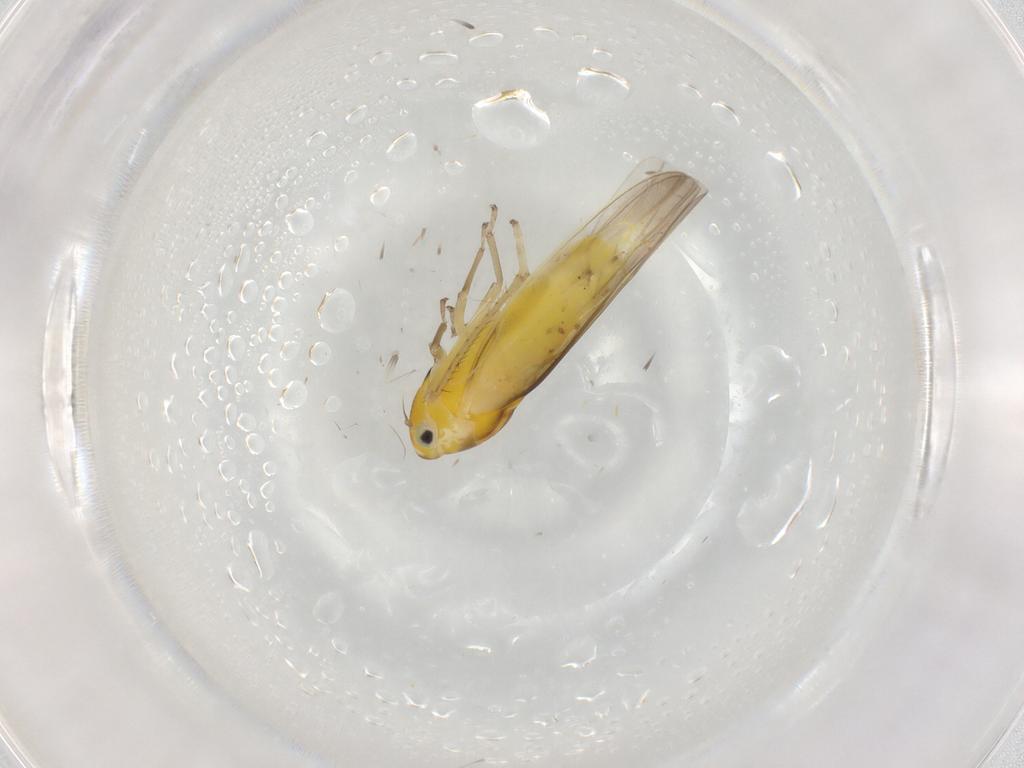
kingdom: Animalia
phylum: Arthropoda
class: Insecta
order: Hemiptera
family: Cicadellidae
